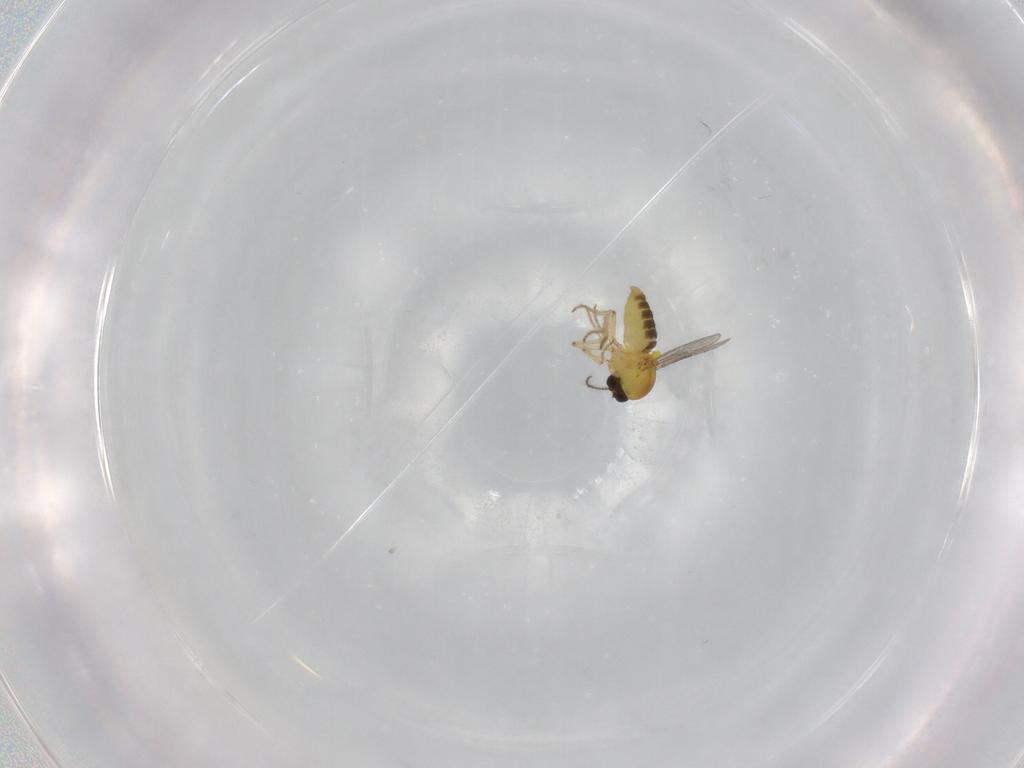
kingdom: Animalia
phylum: Arthropoda
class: Insecta
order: Diptera
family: Ceratopogonidae
